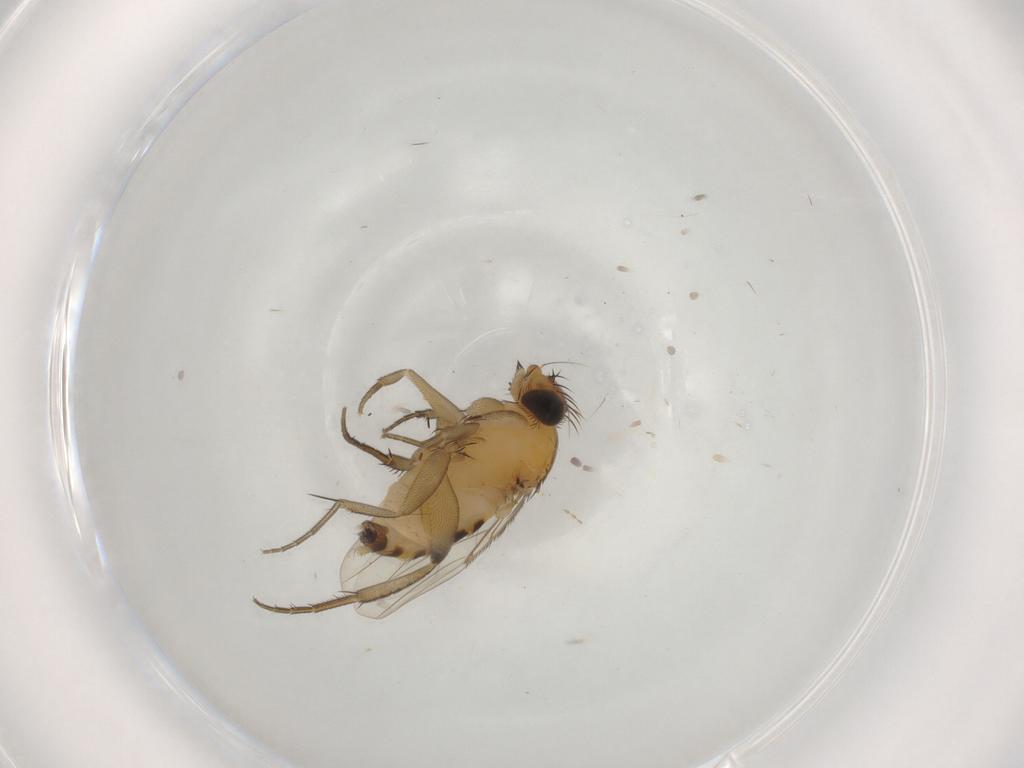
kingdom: Animalia
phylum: Arthropoda
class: Insecta
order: Diptera
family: Phoridae
